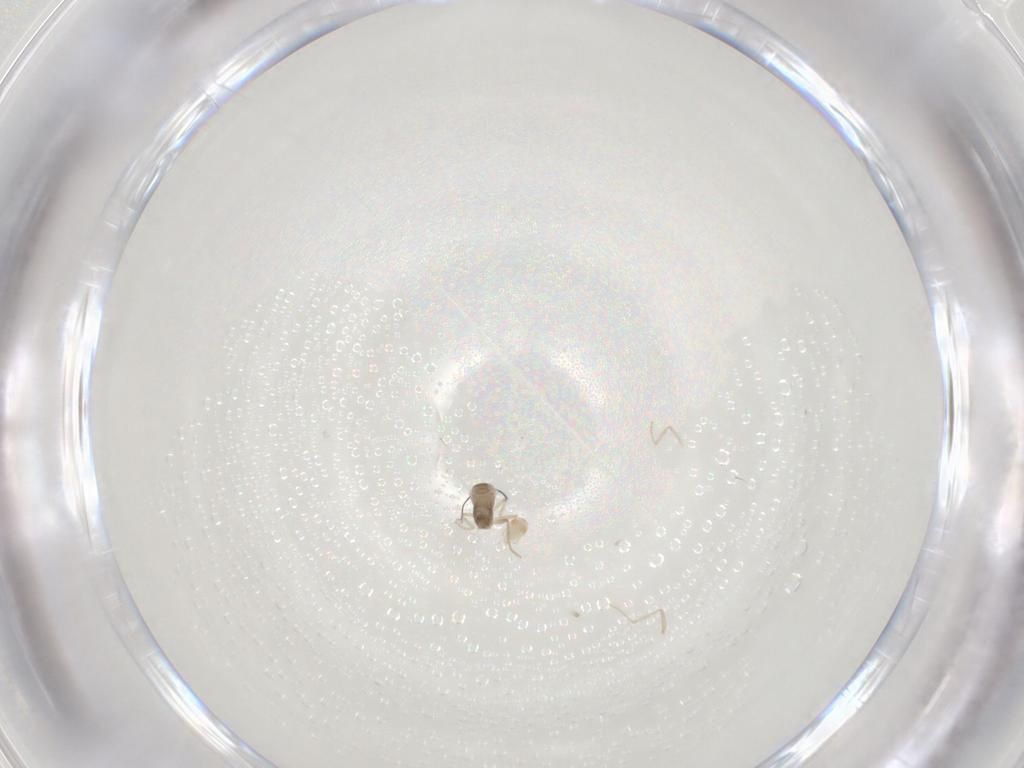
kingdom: Animalia
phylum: Arthropoda
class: Insecta
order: Diptera
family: Cecidomyiidae
